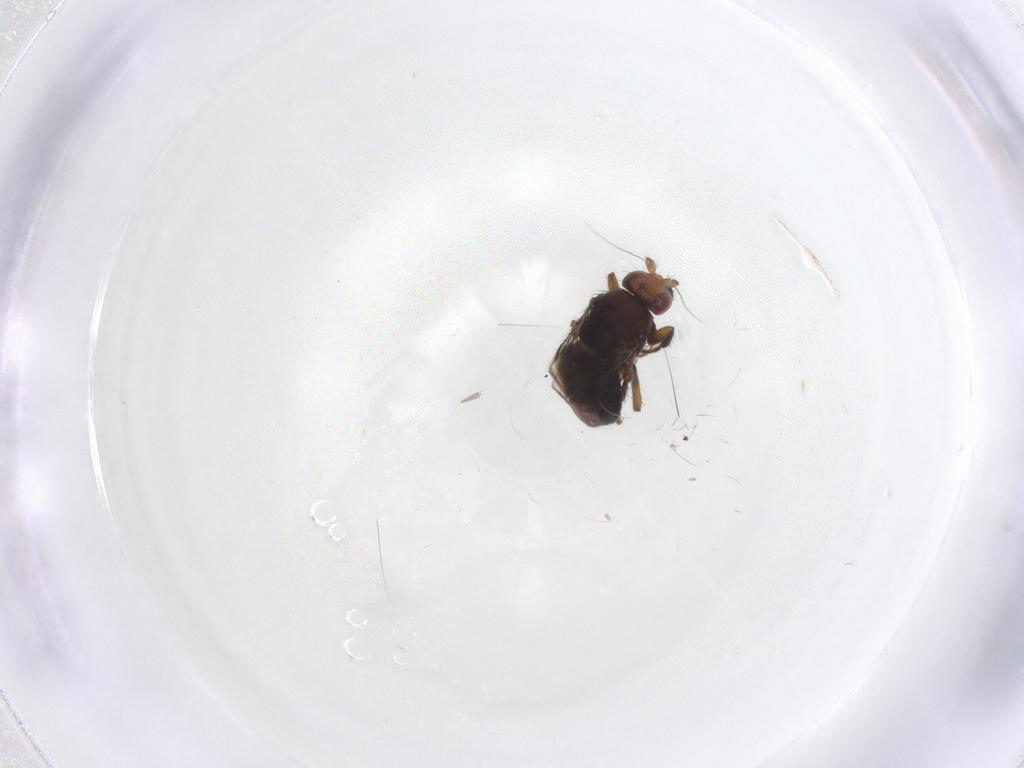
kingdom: Animalia
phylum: Arthropoda
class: Insecta
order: Diptera
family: Sphaeroceridae
